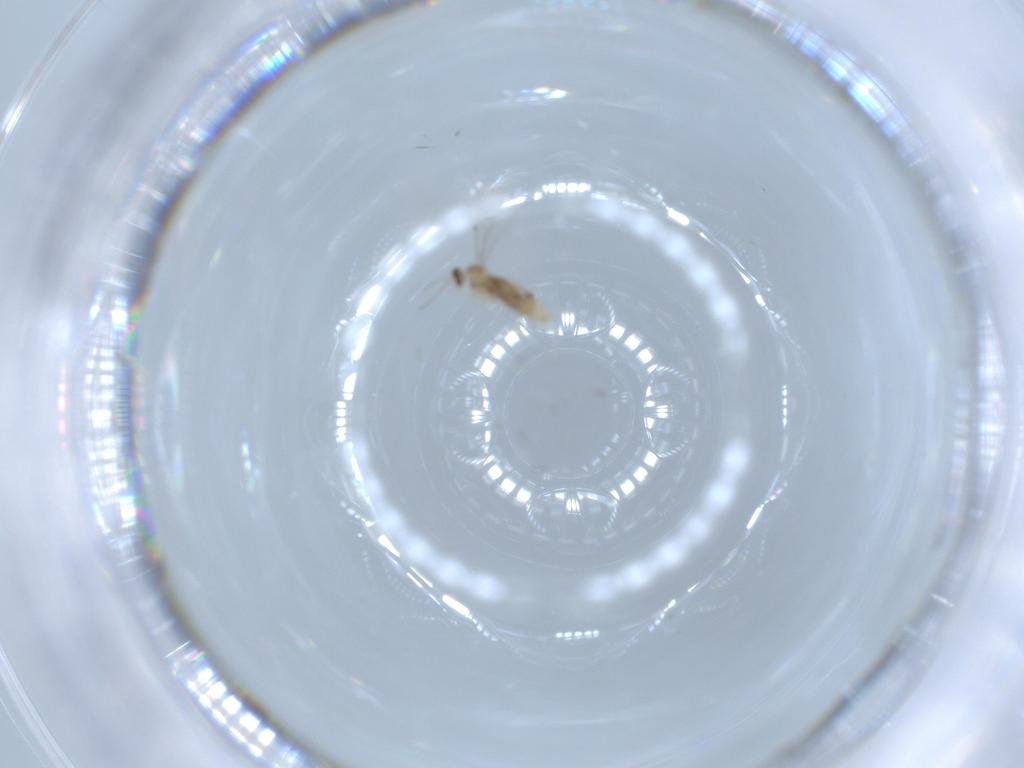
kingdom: Animalia
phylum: Arthropoda
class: Insecta
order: Diptera
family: Cecidomyiidae
